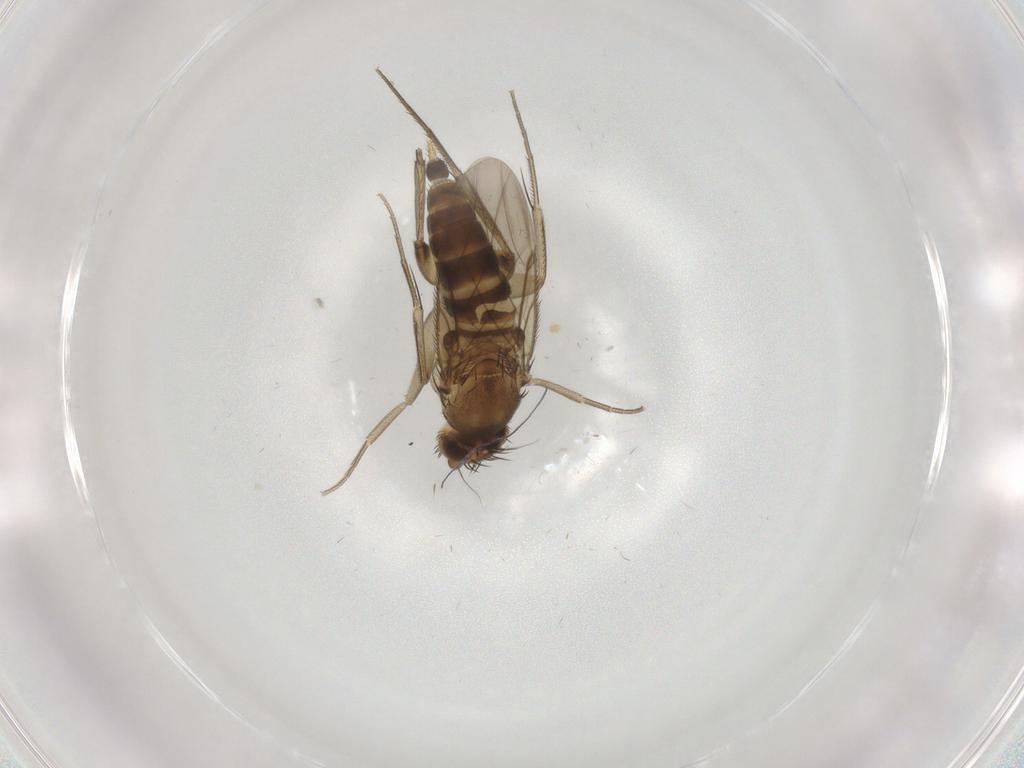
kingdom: Animalia
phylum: Arthropoda
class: Insecta
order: Diptera
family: Phoridae
